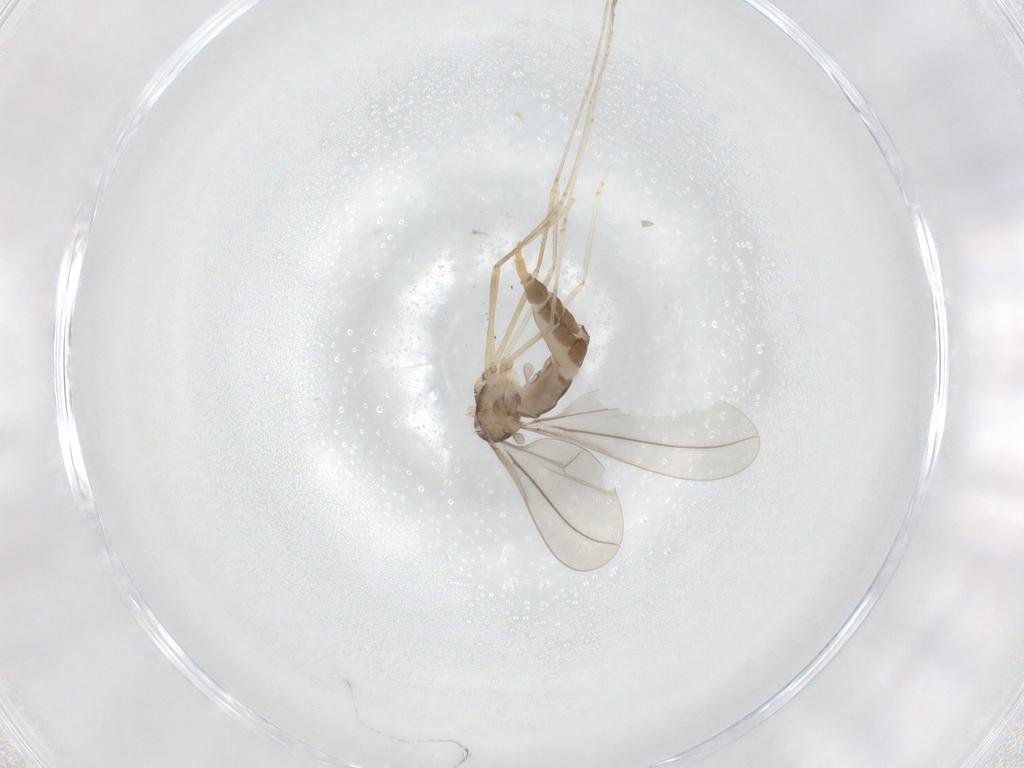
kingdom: Animalia
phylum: Arthropoda
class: Insecta
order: Diptera
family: Cecidomyiidae
